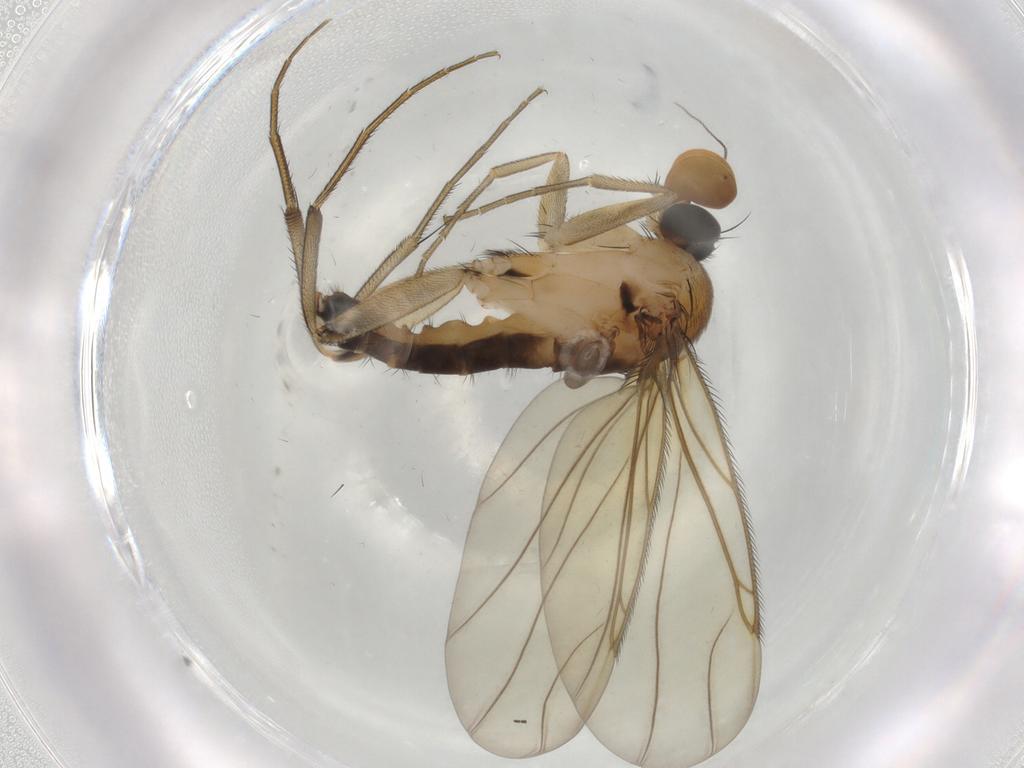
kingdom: Animalia
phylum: Arthropoda
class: Insecta
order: Diptera
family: Phoridae
